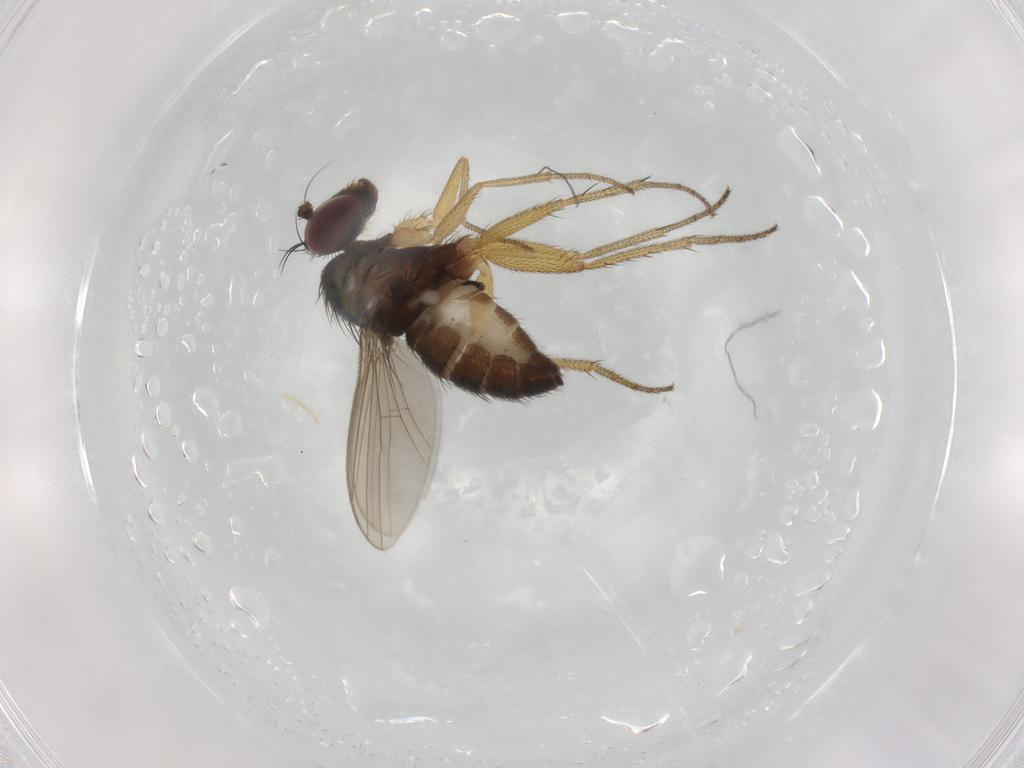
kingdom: Animalia
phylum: Arthropoda
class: Insecta
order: Diptera
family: Dolichopodidae
